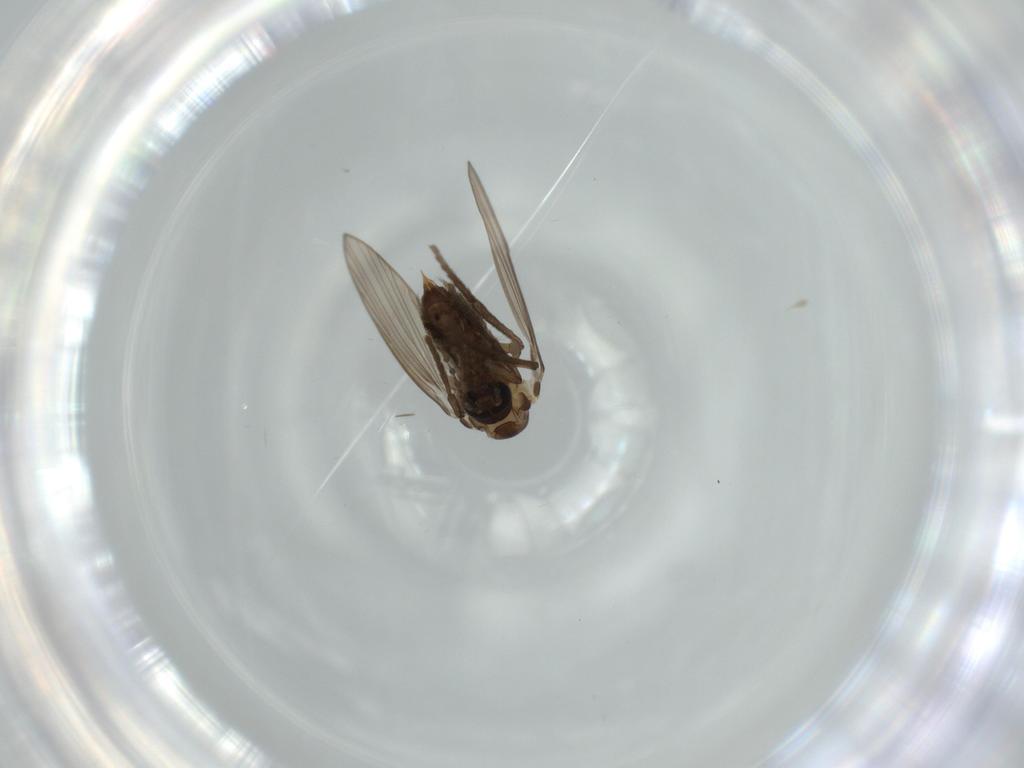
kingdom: Animalia
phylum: Arthropoda
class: Insecta
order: Diptera
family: Psychodidae
